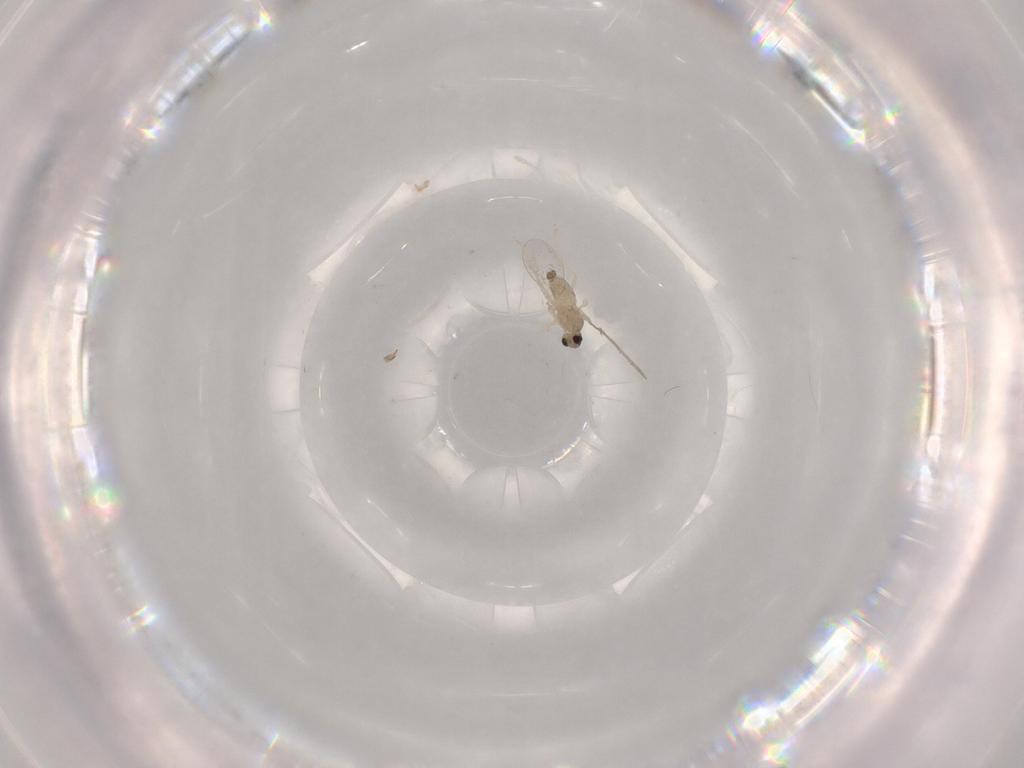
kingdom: Animalia
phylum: Arthropoda
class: Insecta
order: Diptera
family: Cecidomyiidae
